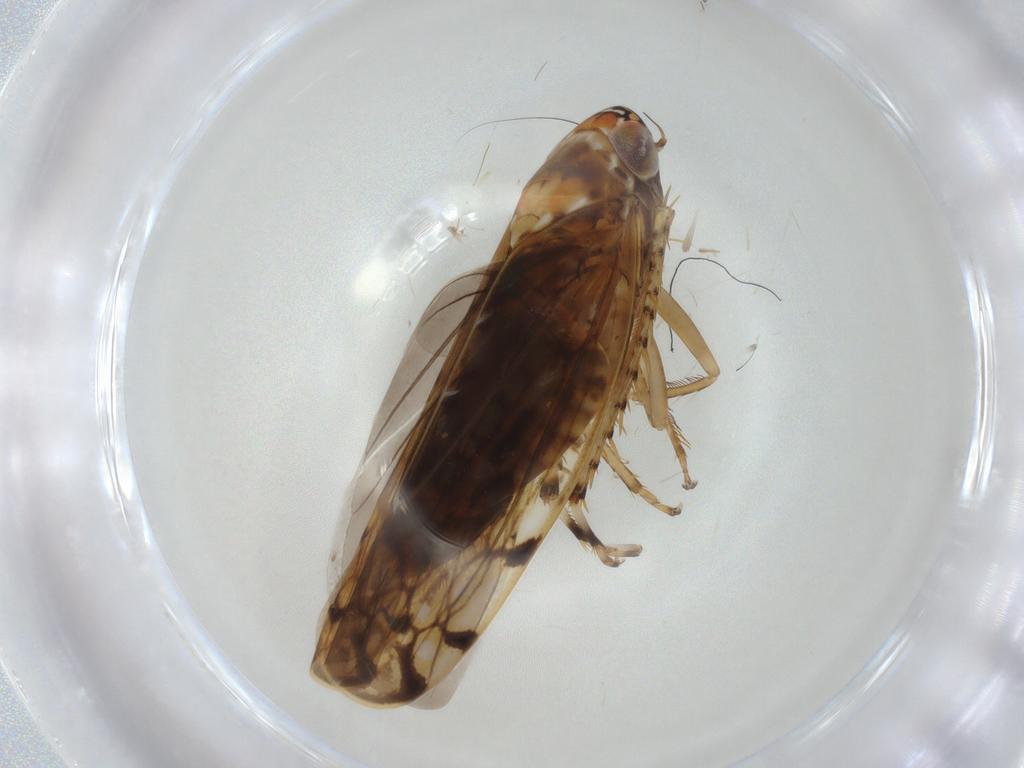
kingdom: Animalia
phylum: Arthropoda
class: Insecta
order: Hemiptera
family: Cicadellidae
